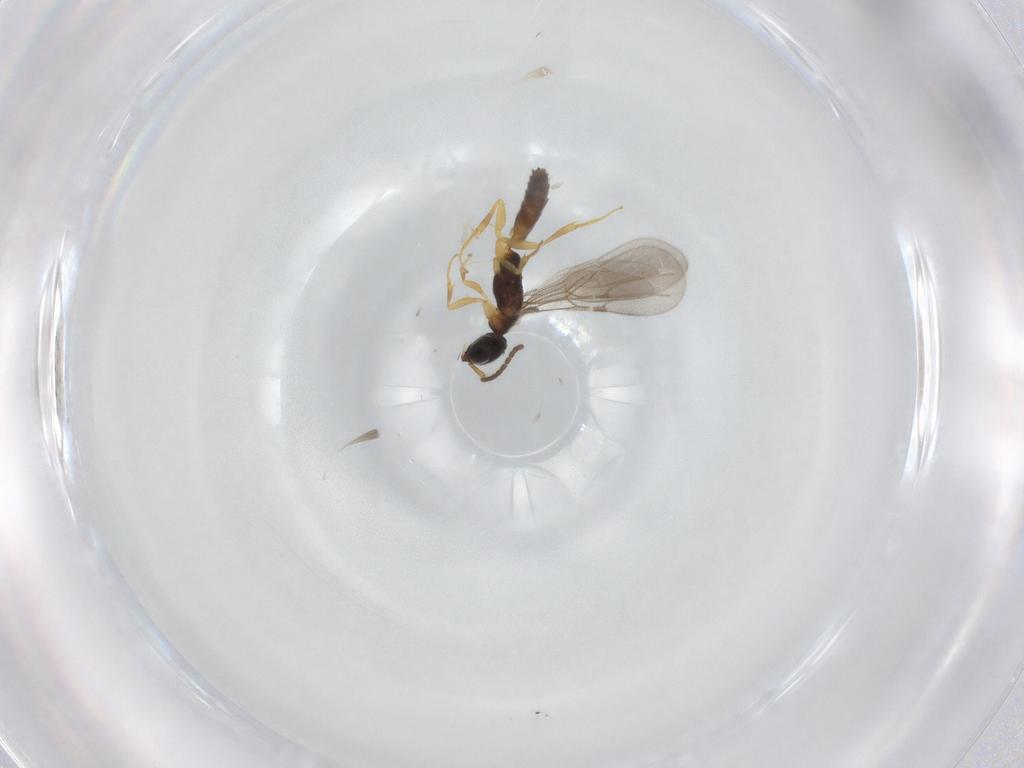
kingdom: Animalia
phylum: Arthropoda
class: Insecta
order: Hymenoptera
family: Bethylidae
